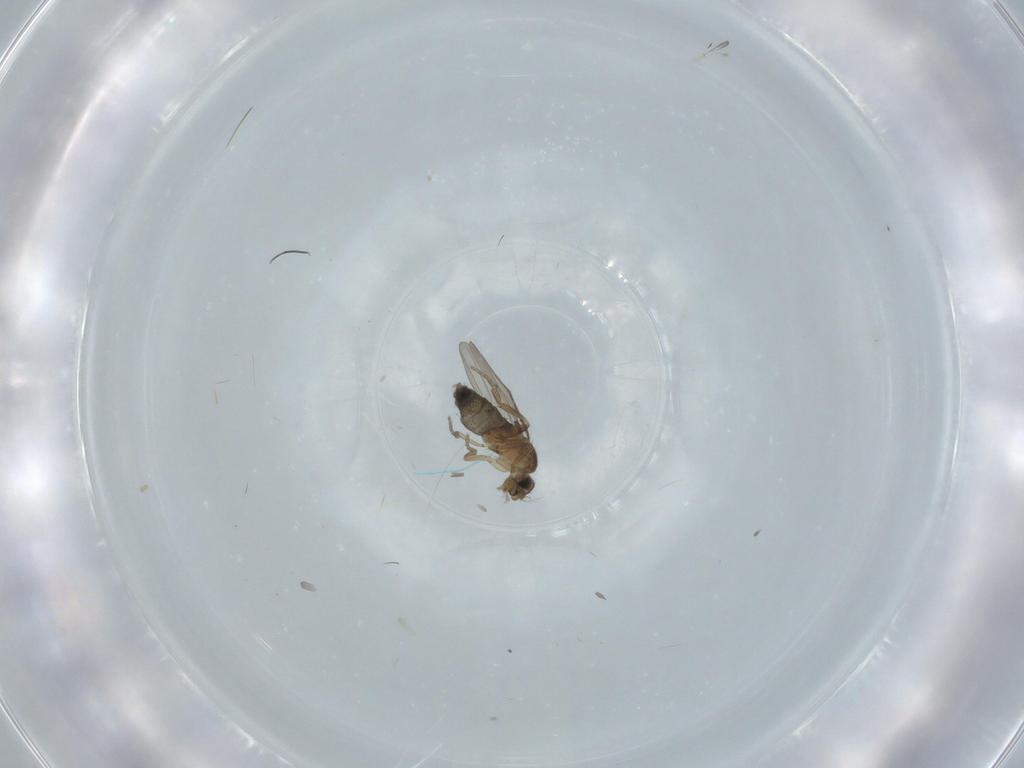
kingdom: Animalia
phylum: Arthropoda
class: Insecta
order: Diptera
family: Phoridae
